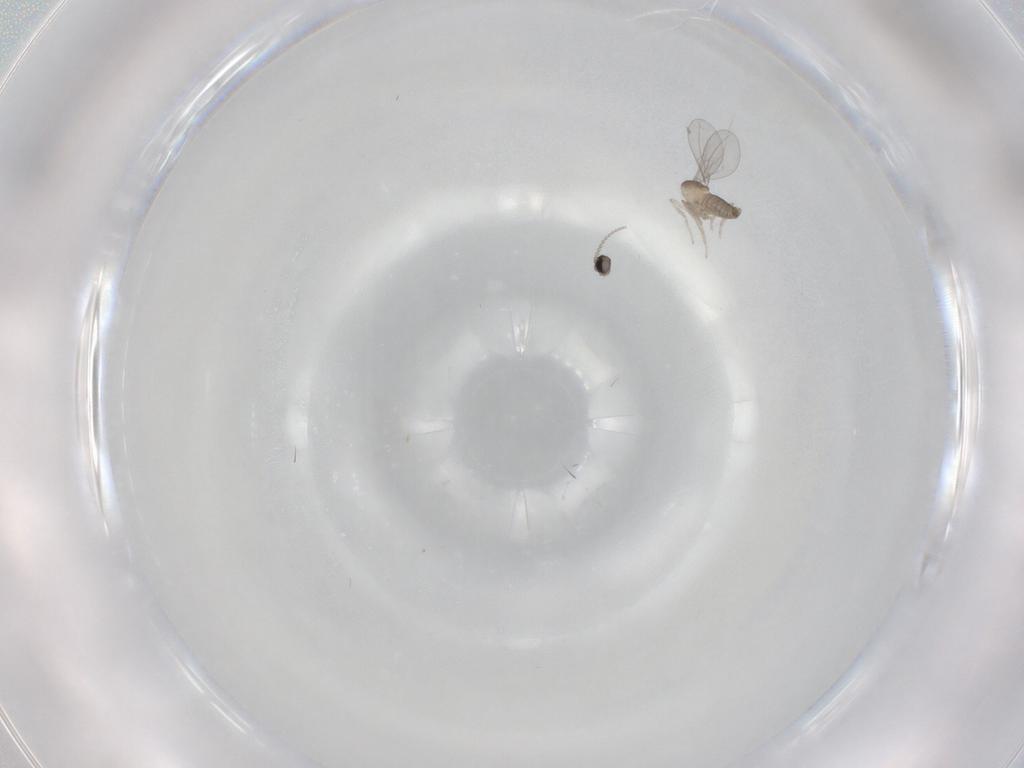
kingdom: Animalia
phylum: Arthropoda
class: Insecta
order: Diptera
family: Cecidomyiidae
